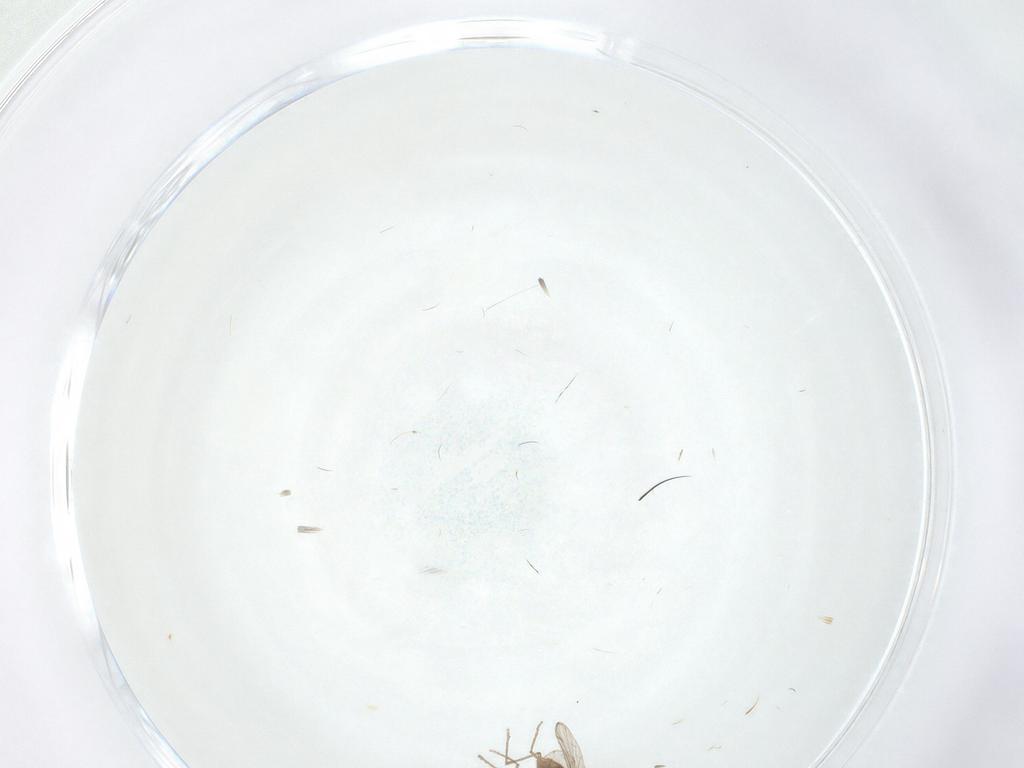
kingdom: Animalia
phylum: Arthropoda
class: Insecta
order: Diptera
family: Chironomidae
